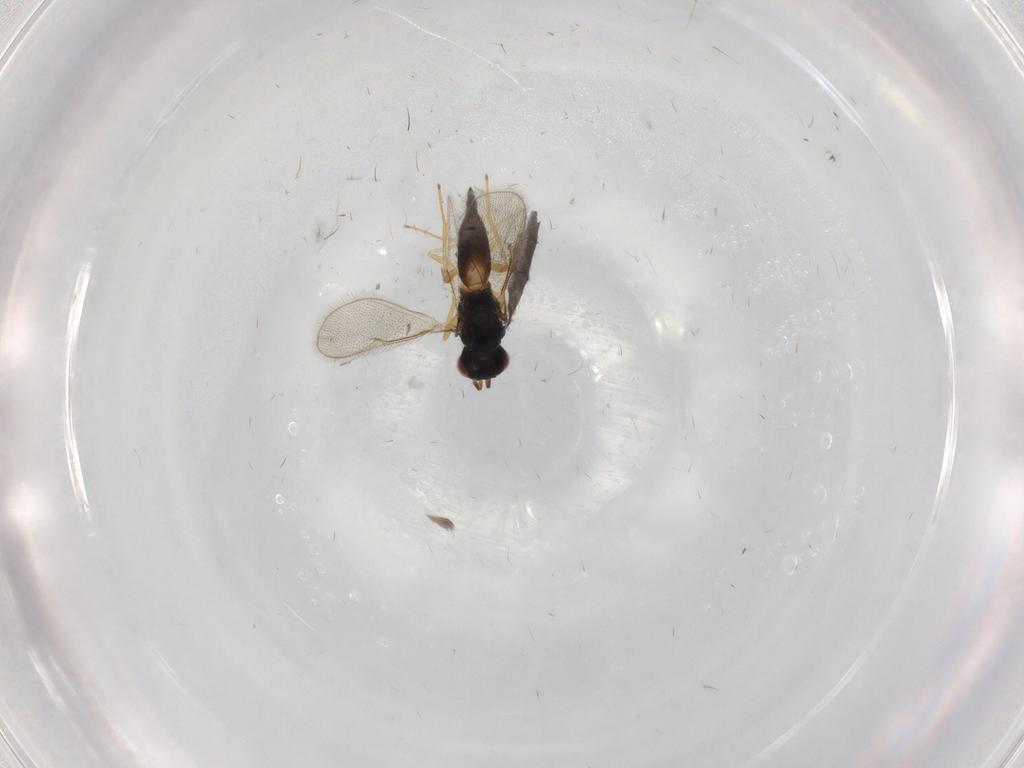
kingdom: Animalia
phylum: Arthropoda
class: Insecta
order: Hymenoptera
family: Diapriidae
